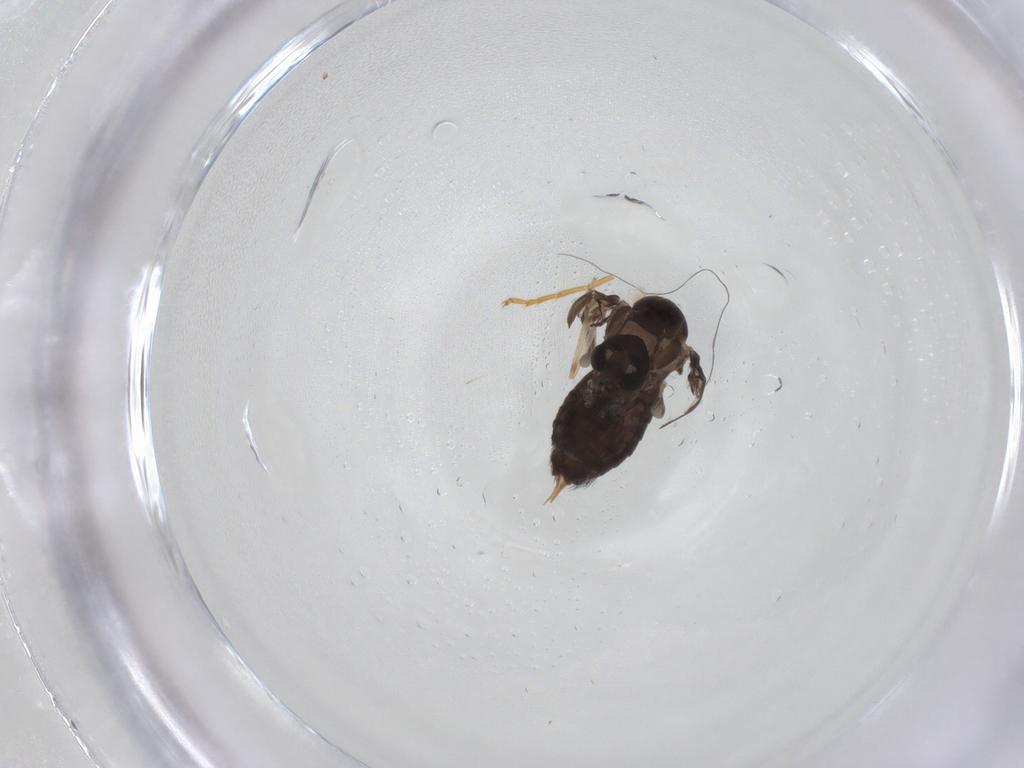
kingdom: Animalia
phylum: Arthropoda
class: Insecta
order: Diptera
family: Psychodidae
